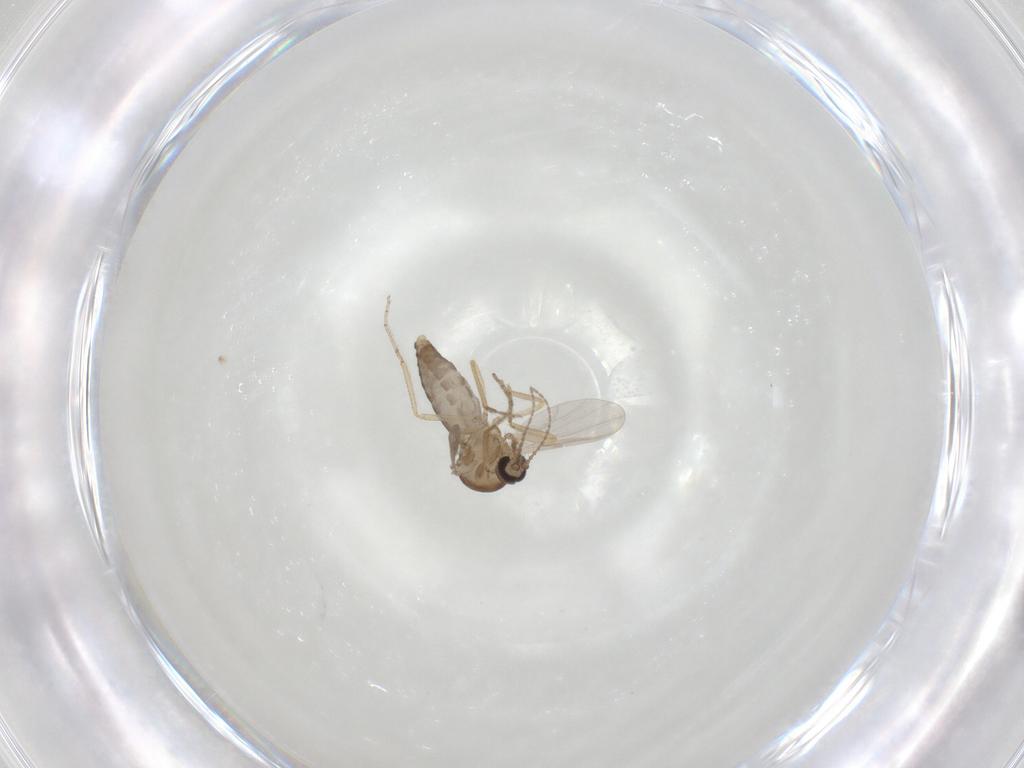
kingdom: Animalia
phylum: Arthropoda
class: Insecta
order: Diptera
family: Ceratopogonidae
